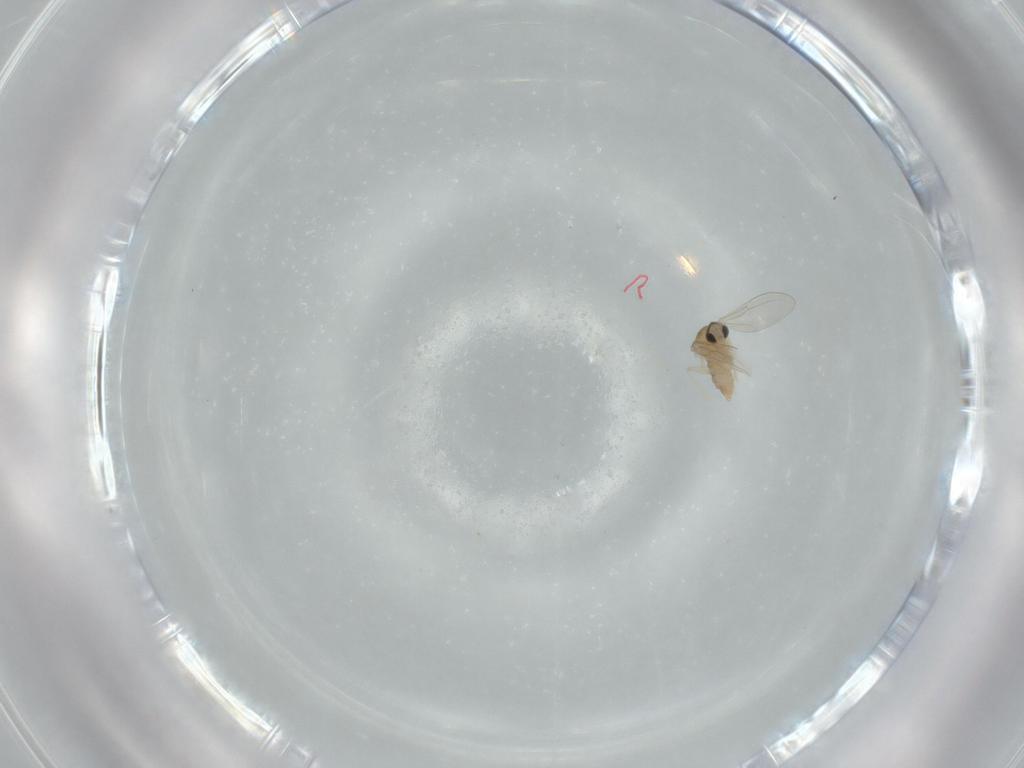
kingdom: Animalia
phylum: Arthropoda
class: Insecta
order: Diptera
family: Cecidomyiidae
